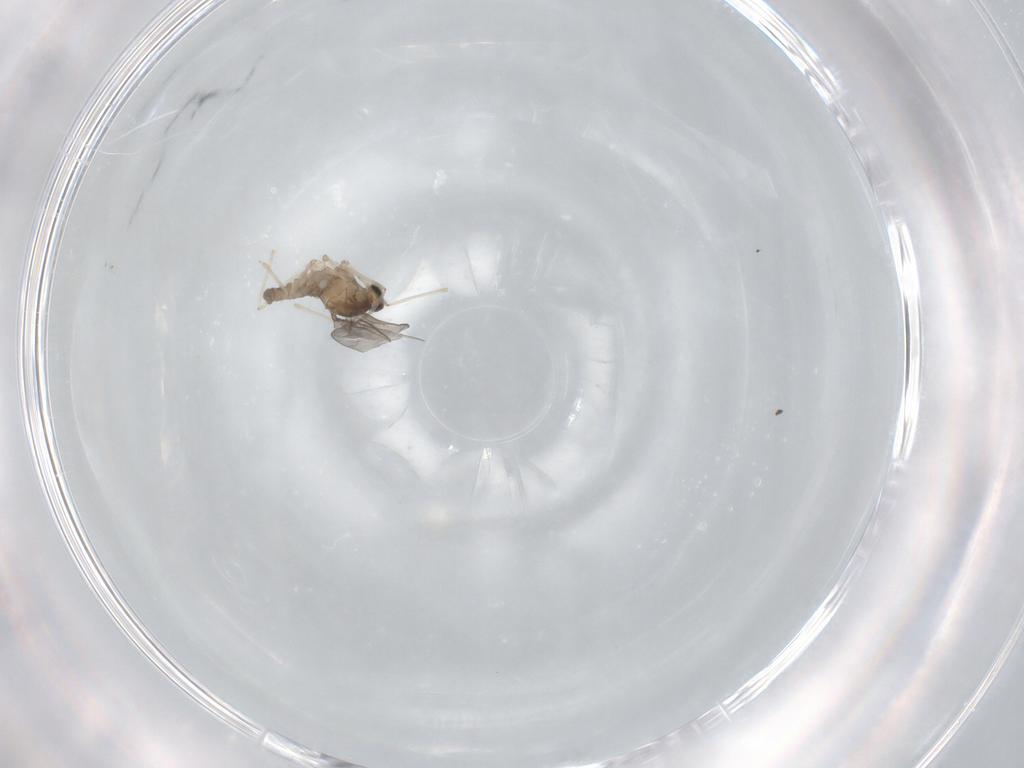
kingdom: Animalia
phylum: Arthropoda
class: Insecta
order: Diptera
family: Cecidomyiidae
